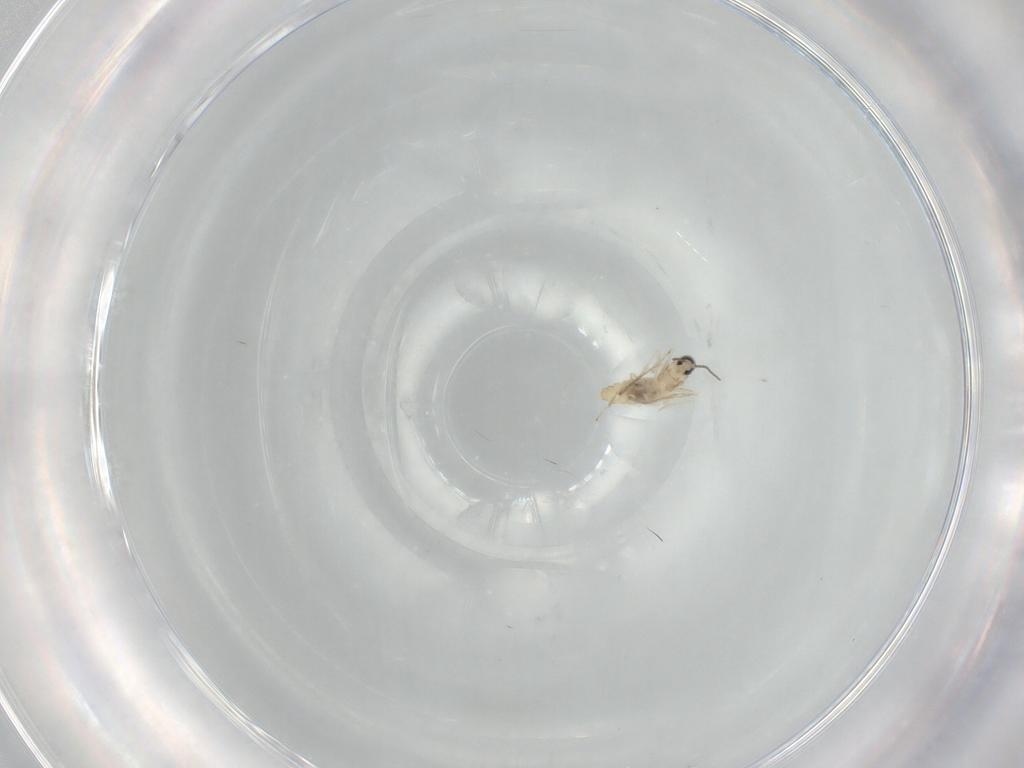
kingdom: Animalia
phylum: Arthropoda
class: Insecta
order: Diptera
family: Cecidomyiidae
